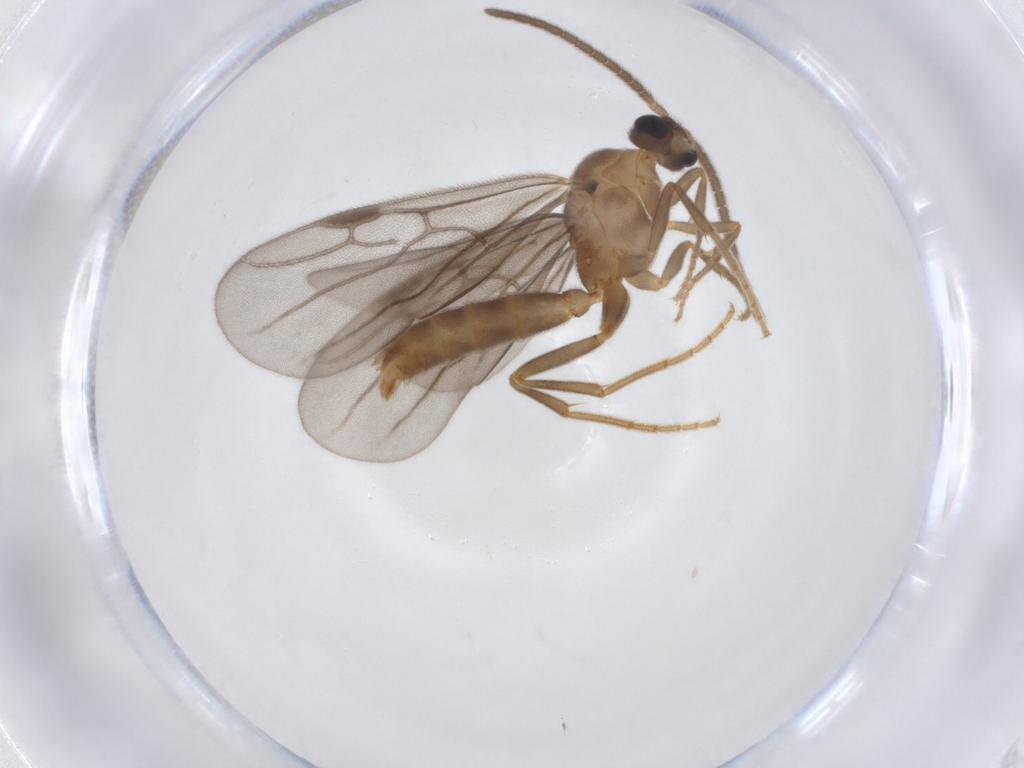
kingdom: Animalia
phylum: Arthropoda
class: Insecta
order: Hymenoptera
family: Formicidae
